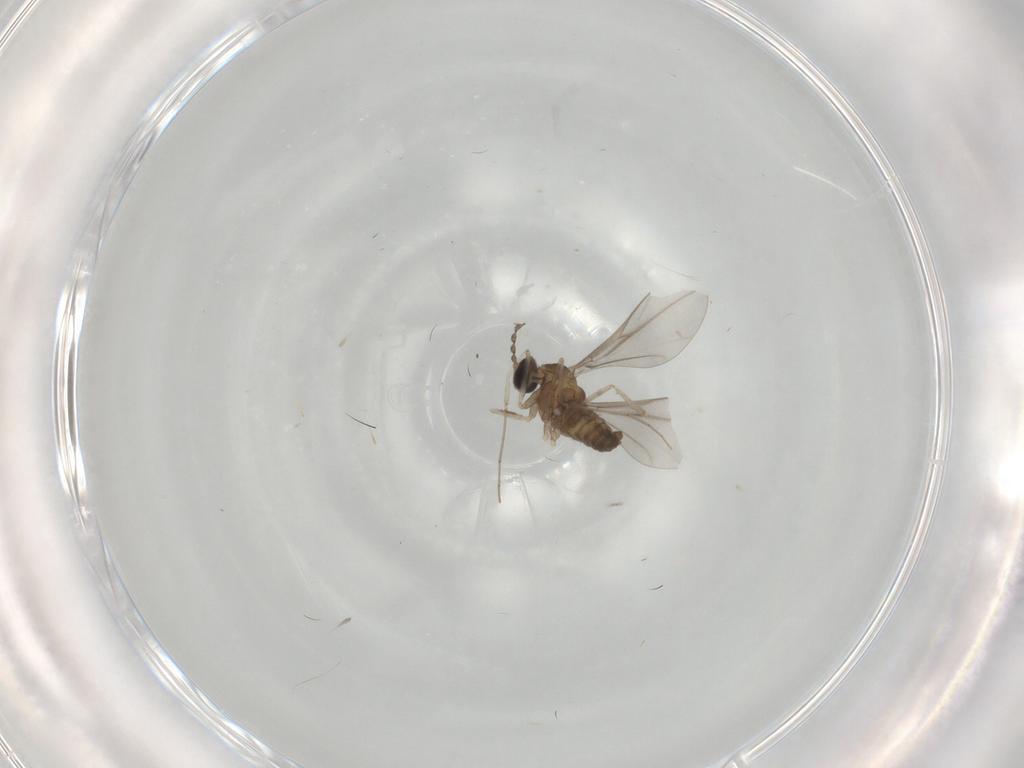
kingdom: Animalia
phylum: Arthropoda
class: Insecta
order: Diptera
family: Cecidomyiidae
